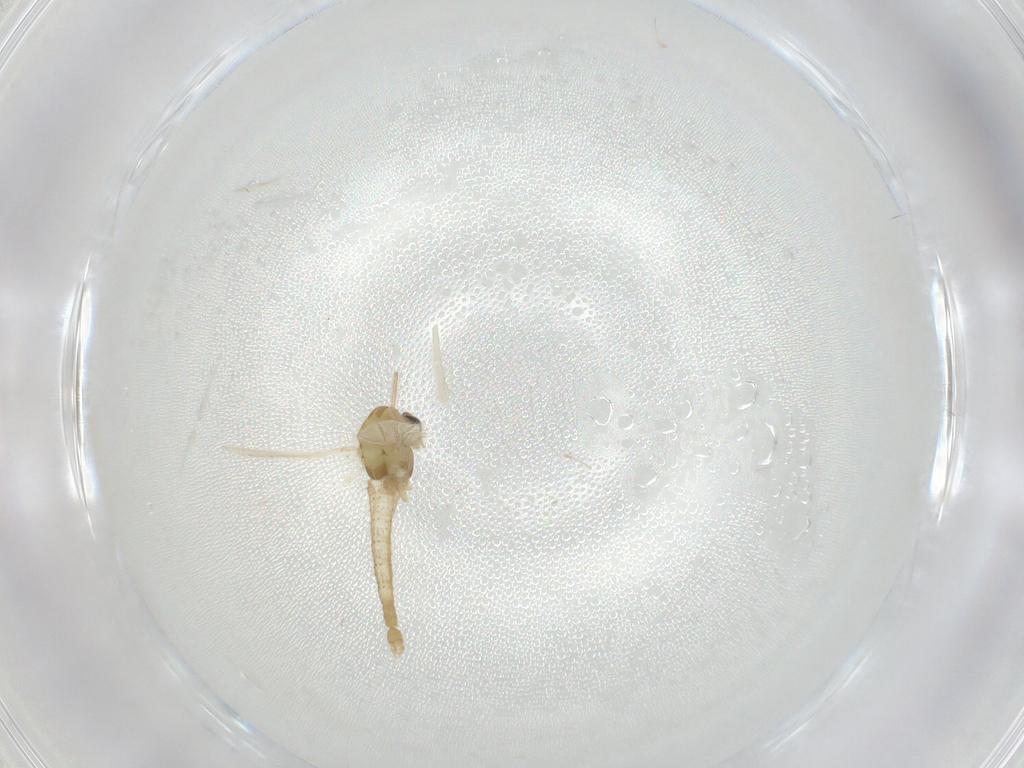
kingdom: Animalia
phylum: Arthropoda
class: Insecta
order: Diptera
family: Chironomidae
